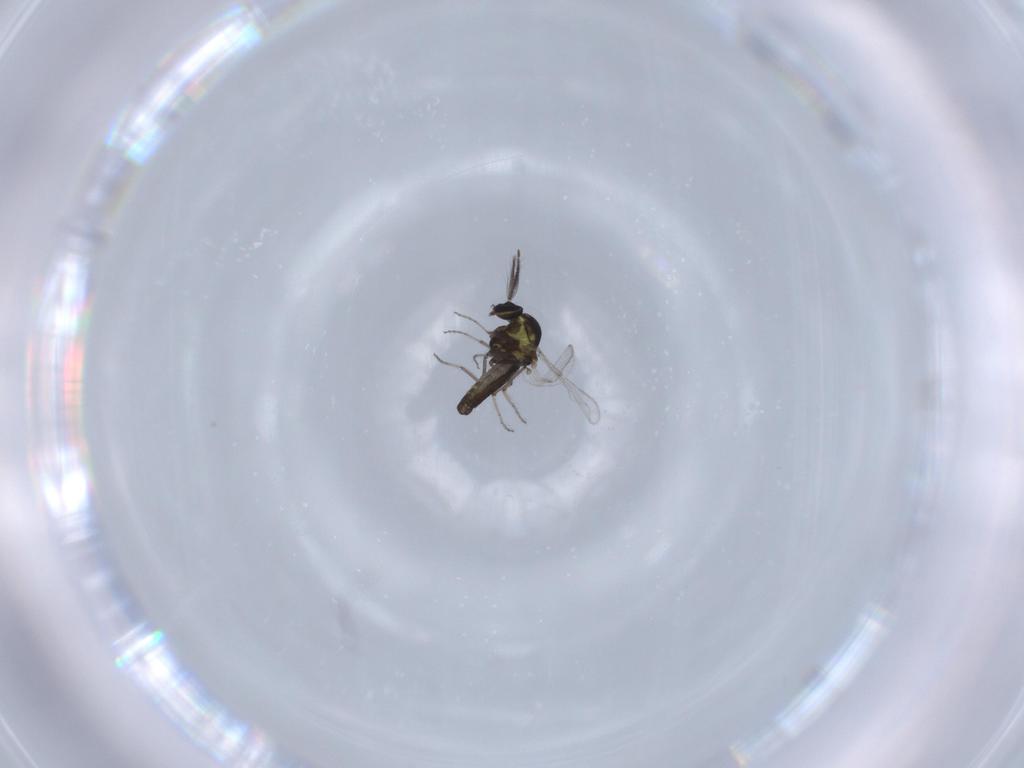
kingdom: Animalia
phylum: Arthropoda
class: Insecta
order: Diptera
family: Ceratopogonidae
